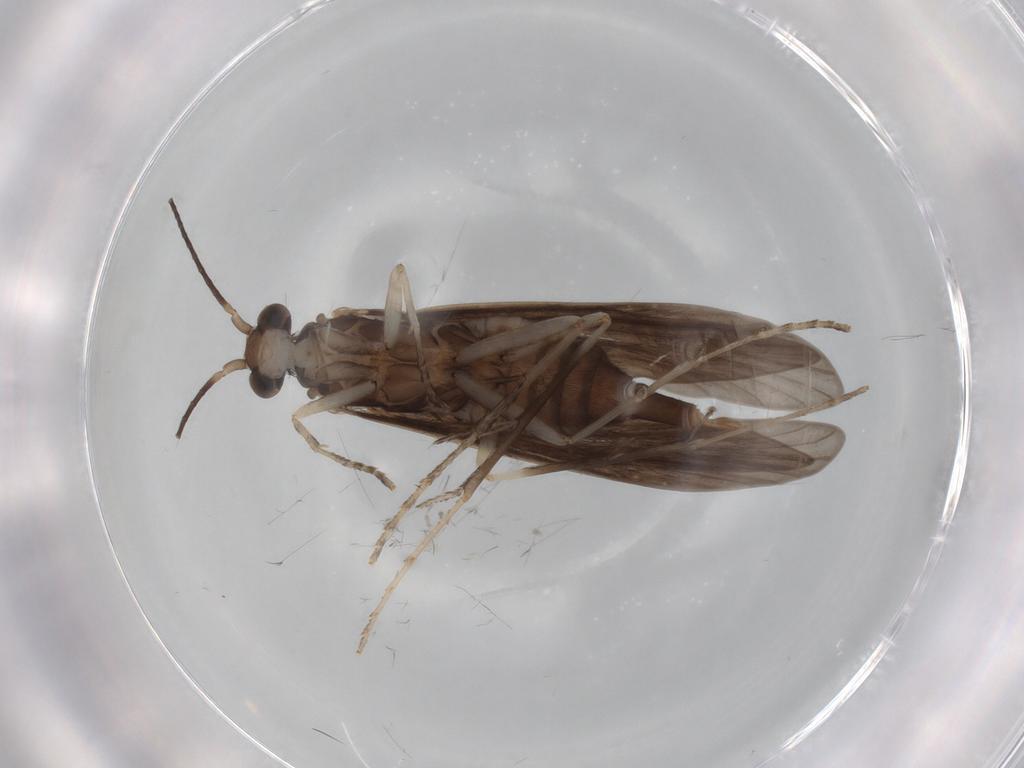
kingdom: Animalia
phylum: Arthropoda
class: Insecta
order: Trichoptera
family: Xiphocentronidae
